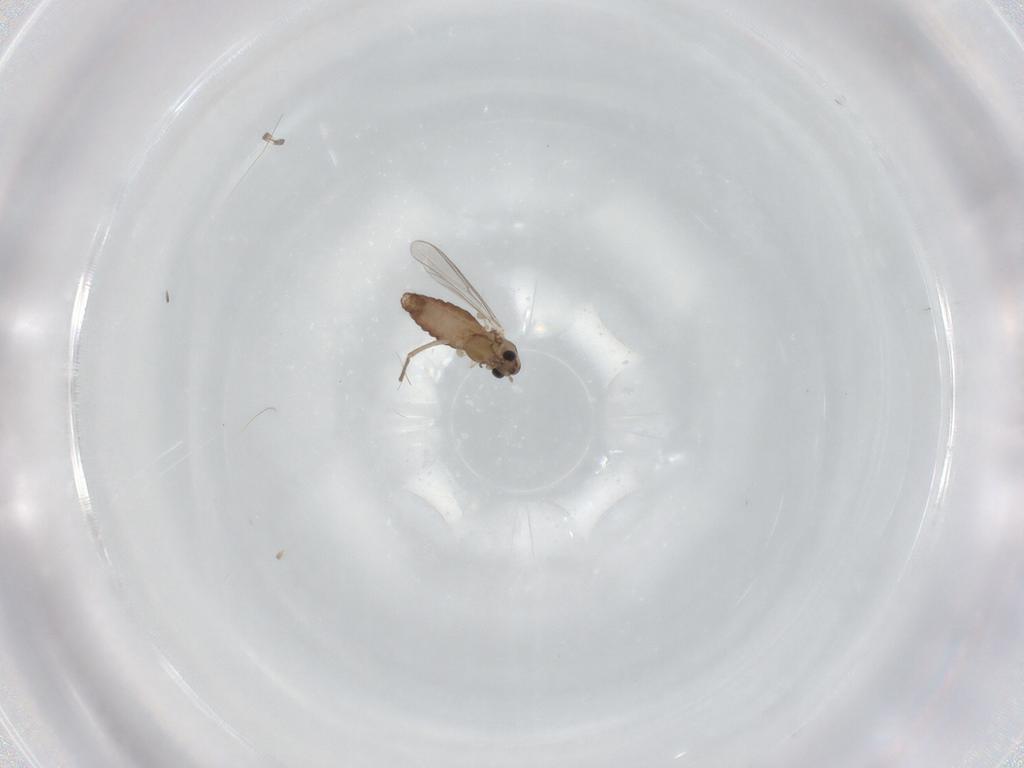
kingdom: Animalia
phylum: Arthropoda
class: Insecta
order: Diptera
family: Chironomidae
